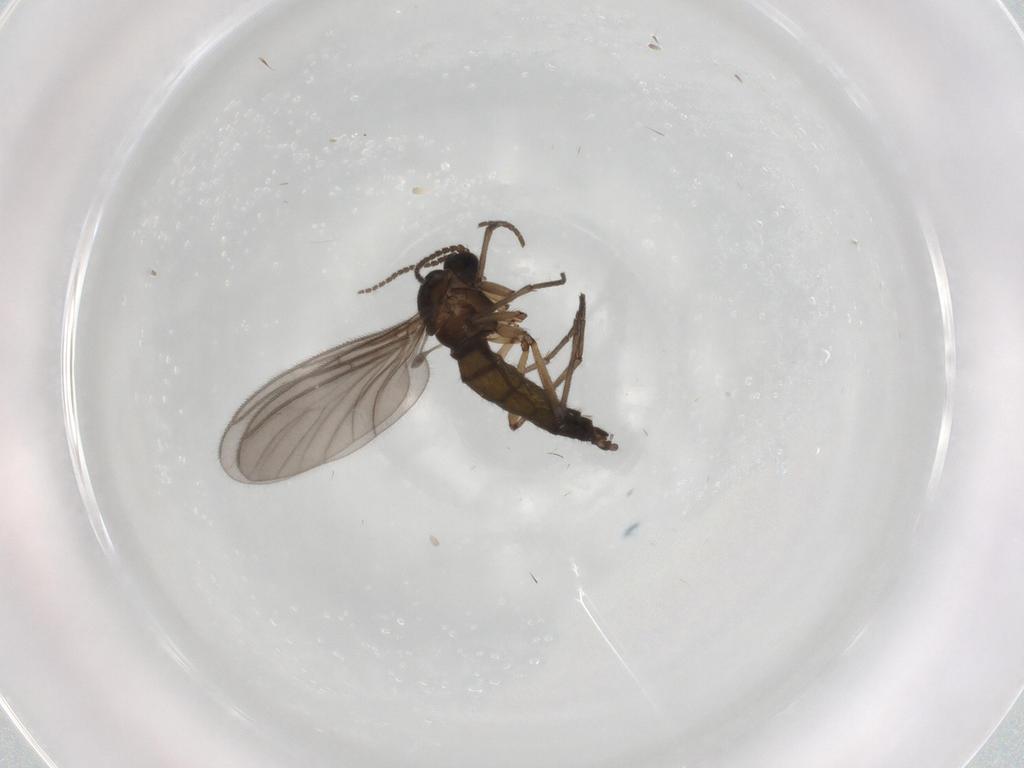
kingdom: Animalia
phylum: Arthropoda
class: Insecta
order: Diptera
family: Sciaridae
